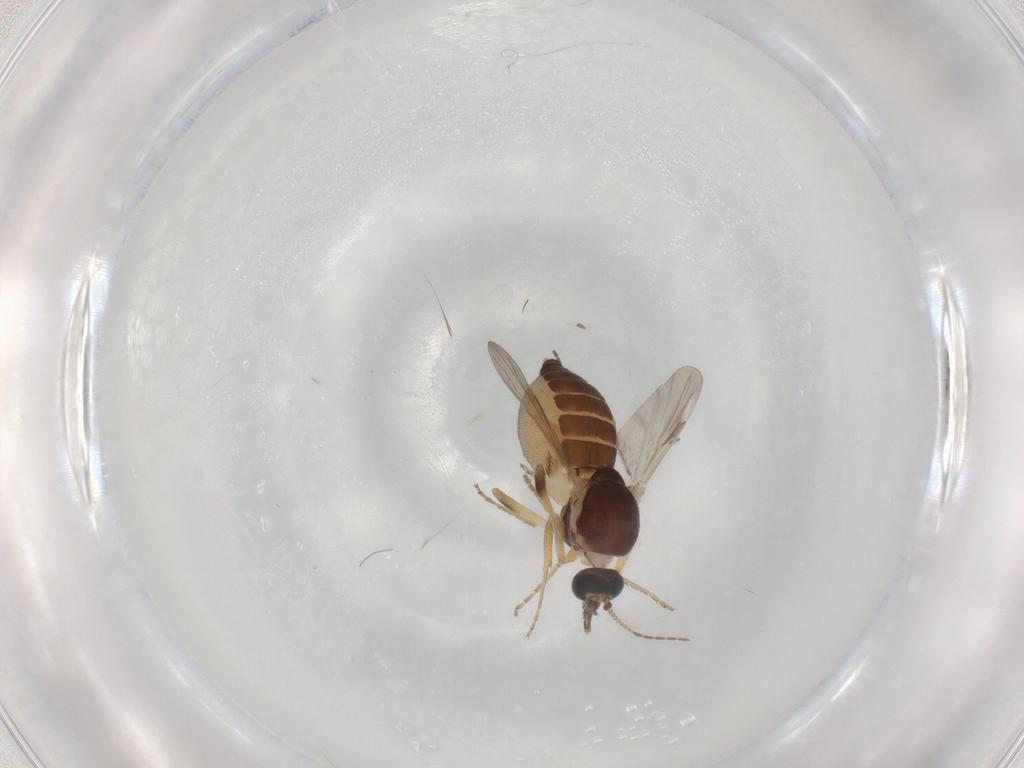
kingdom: Animalia
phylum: Arthropoda
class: Insecta
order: Diptera
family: Ceratopogonidae
